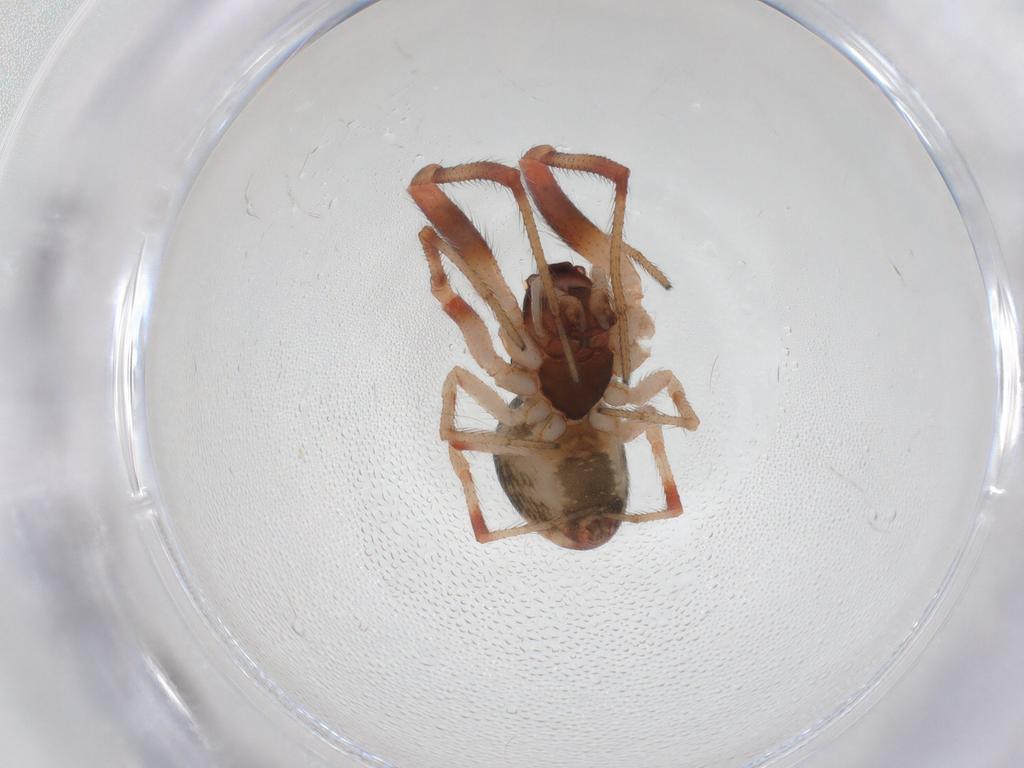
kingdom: Animalia
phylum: Arthropoda
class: Arachnida
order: Araneae
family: Theridiidae
